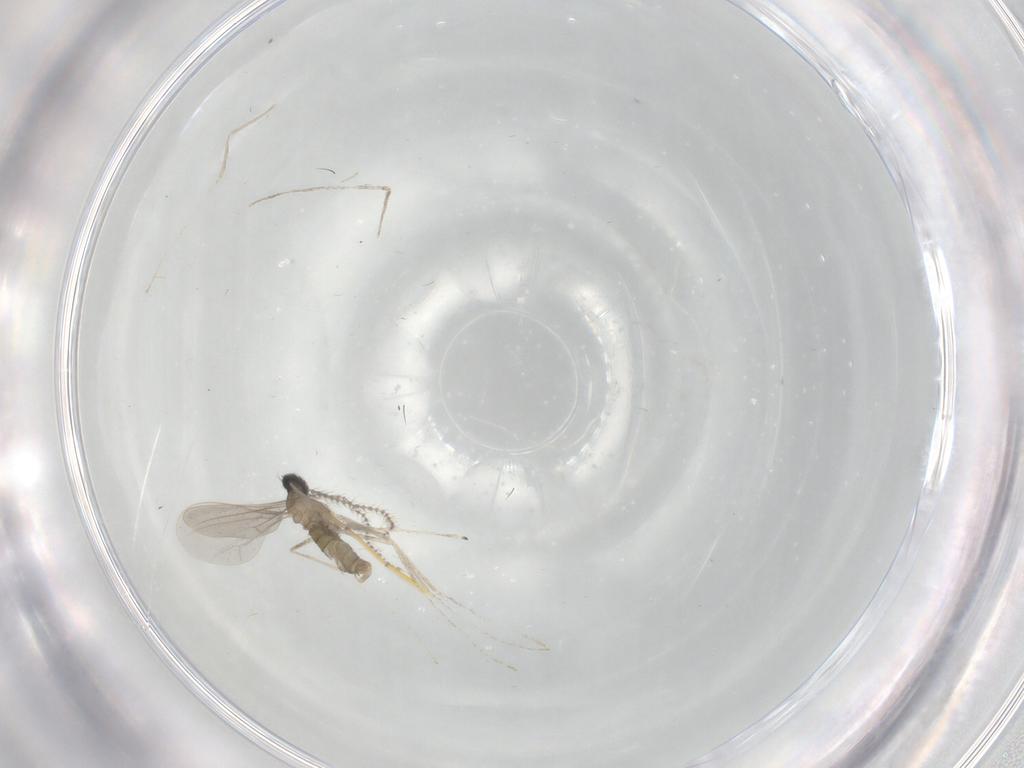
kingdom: Animalia
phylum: Arthropoda
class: Insecta
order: Diptera
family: Cecidomyiidae
